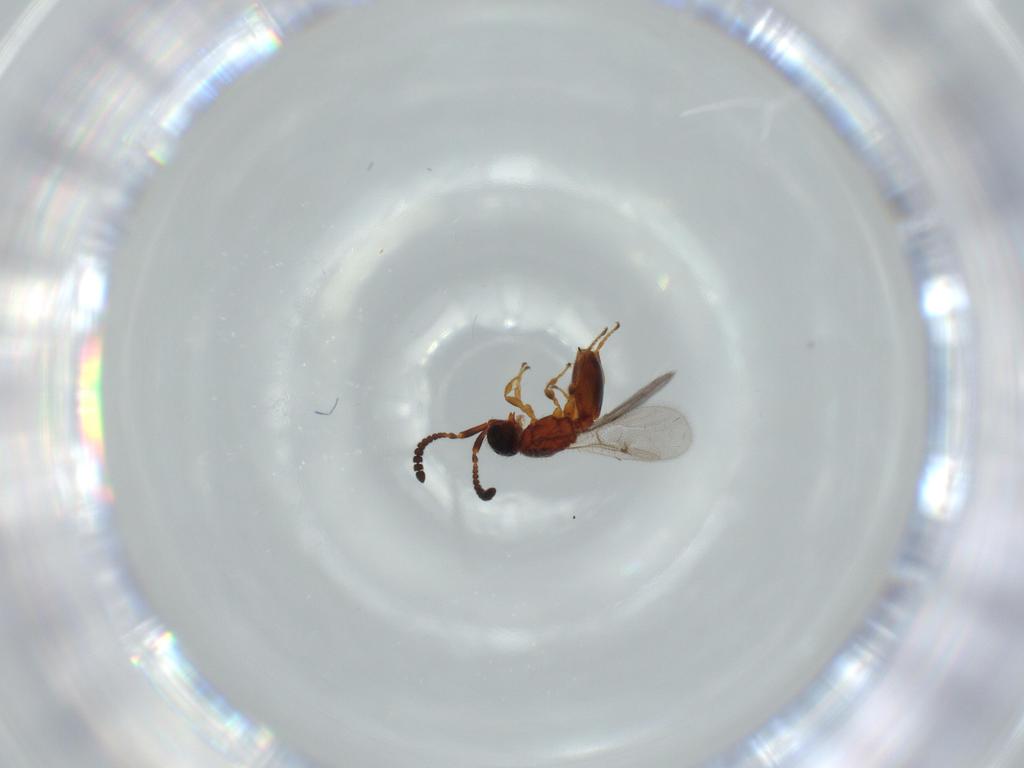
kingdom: Animalia
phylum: Arthropoda
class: Insecta
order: Hymenoptera
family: Diapriidae
